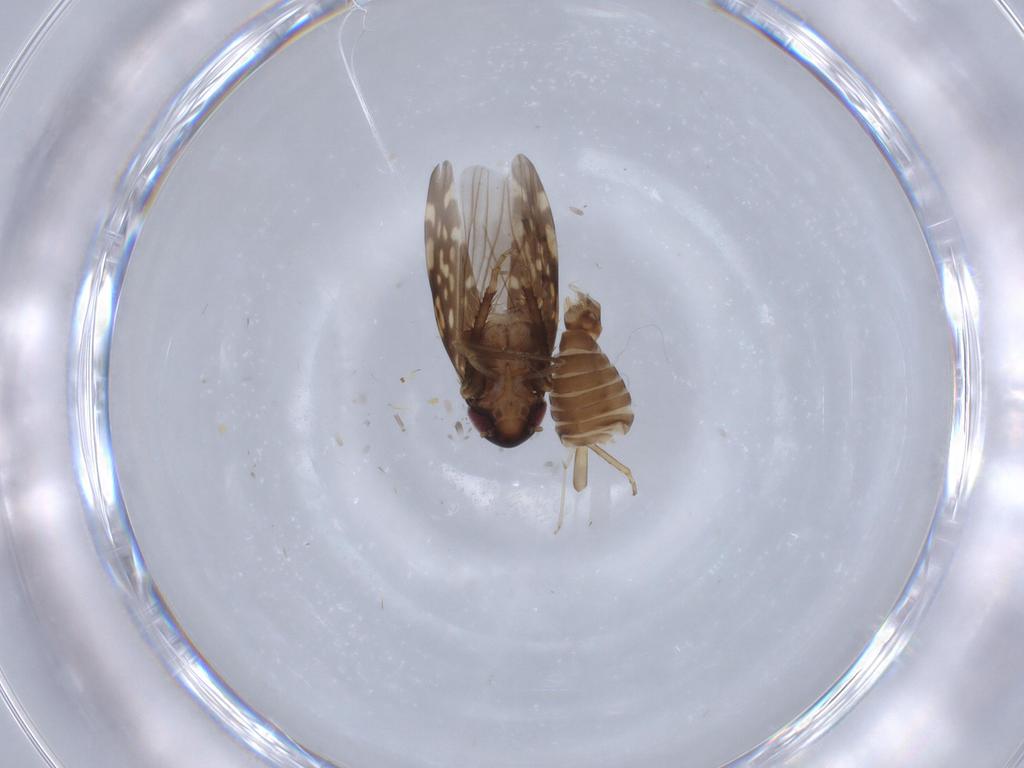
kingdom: Animalia
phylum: Arthropoda
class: Insecta
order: Hemiptera
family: Cicadellidae
